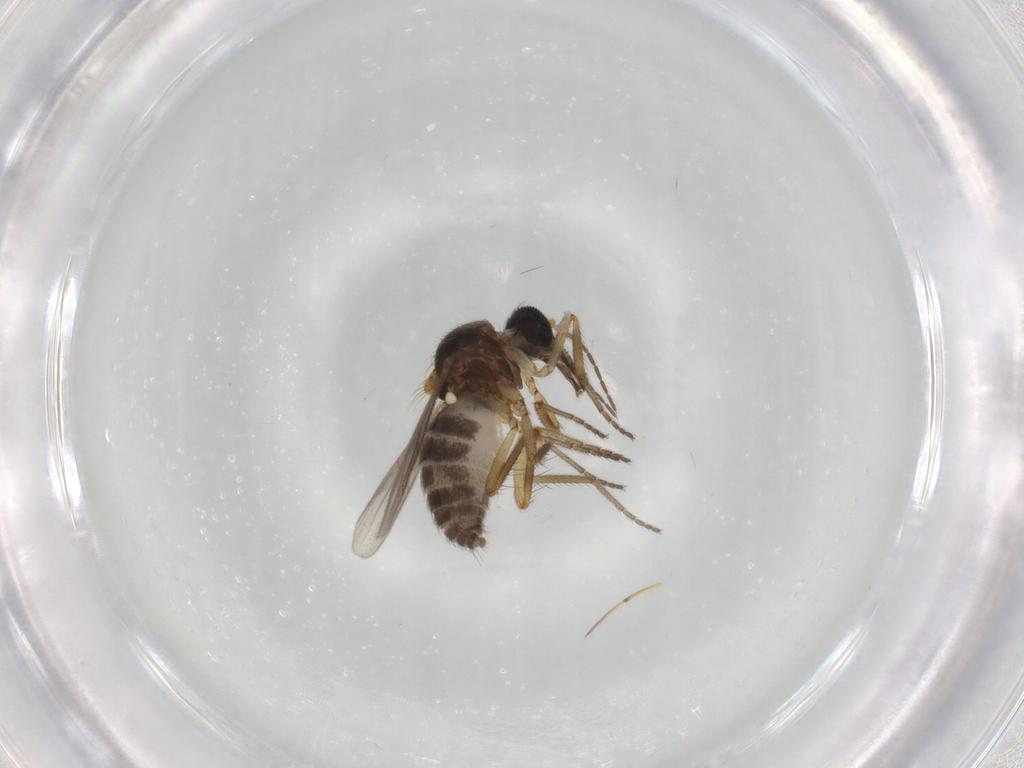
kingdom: Animalia
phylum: Arthropoda
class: Insecta
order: Diptera
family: Ceratopogonidae
